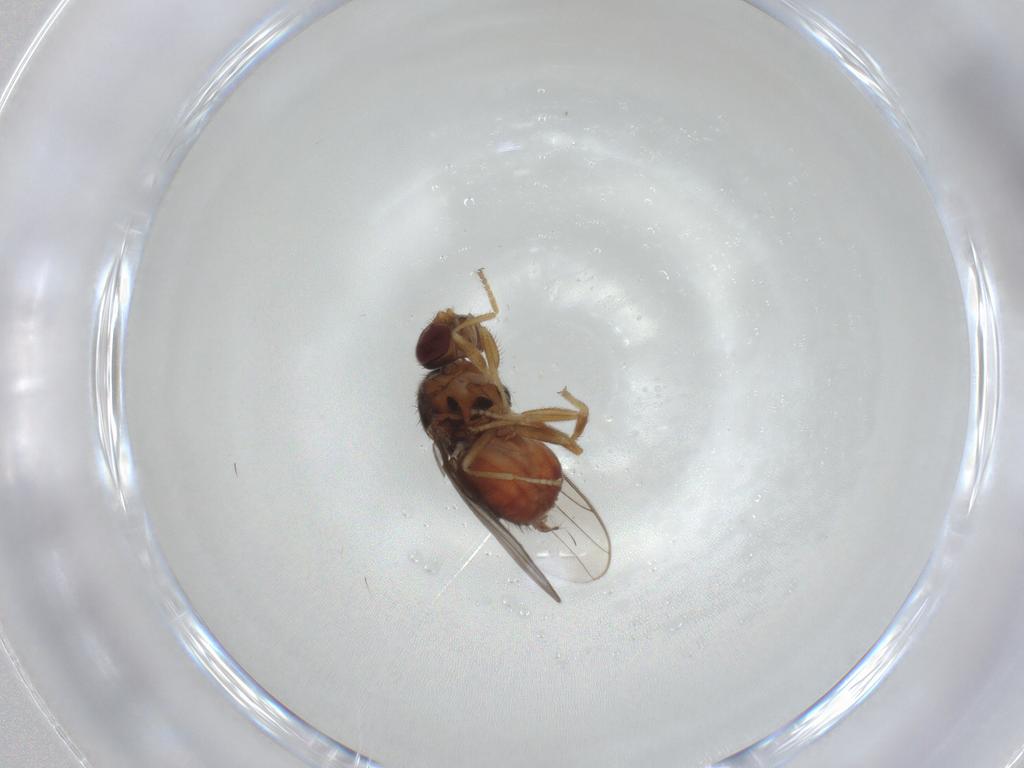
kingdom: Animalia
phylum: Arthropoda
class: Insecta
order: Diptera
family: Chloropidae
